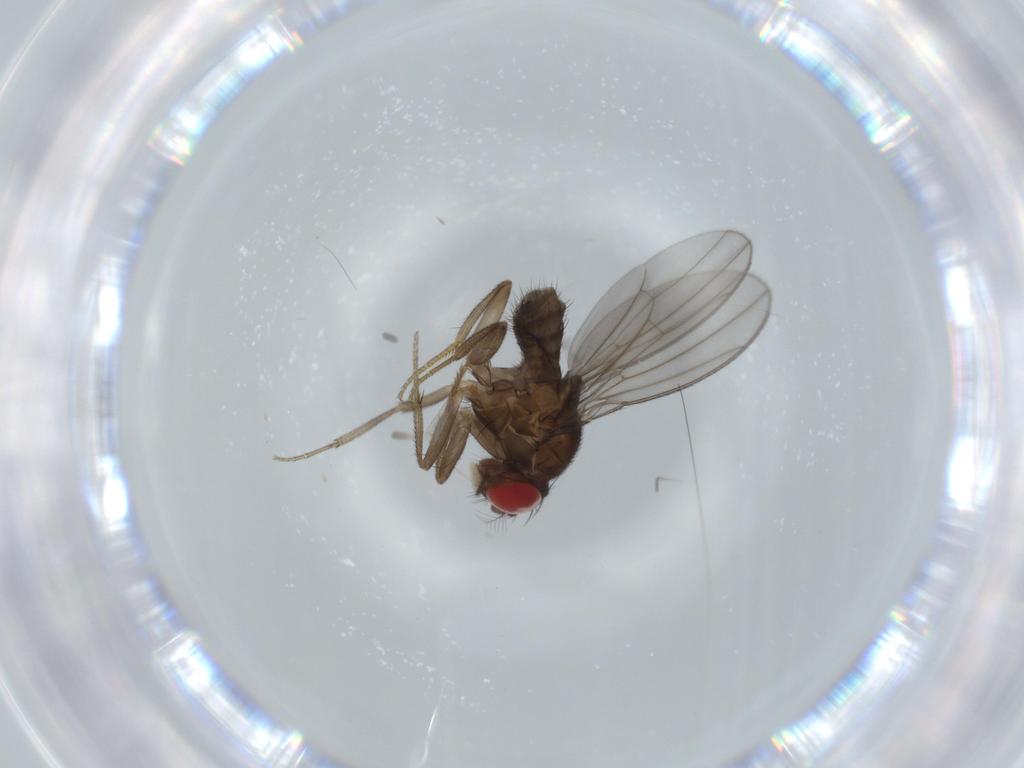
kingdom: Animalia
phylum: Arthropoda
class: Insecta
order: Diptera
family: Drosophilidae
